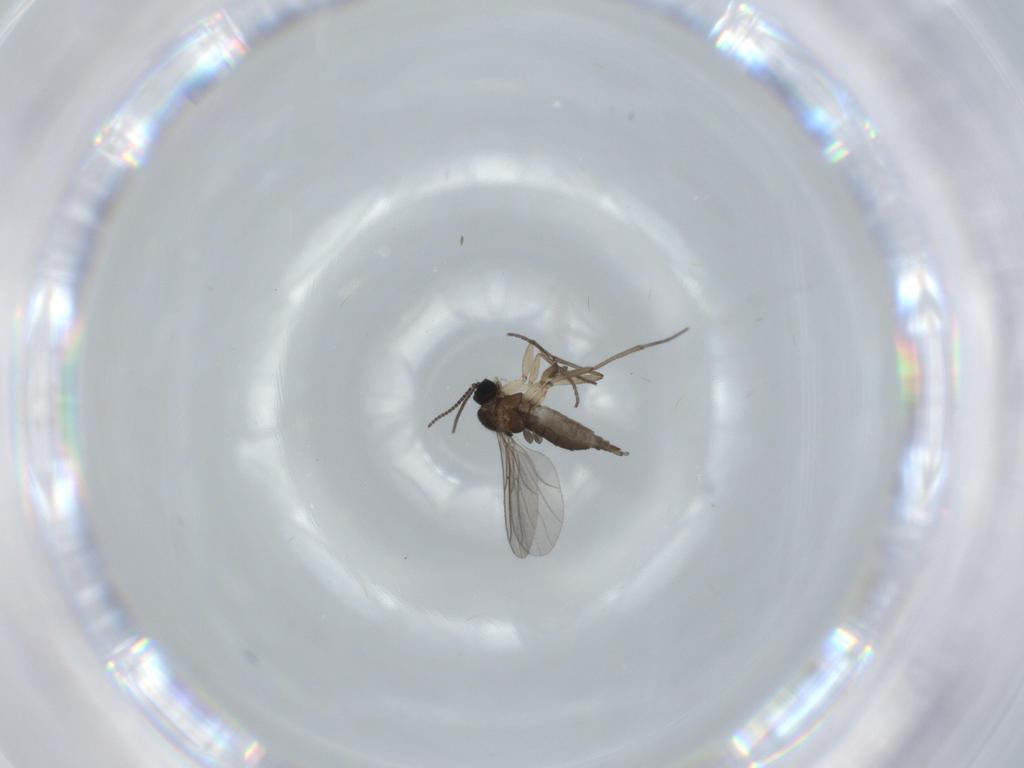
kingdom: Animalia
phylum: Arthropoda
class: Insecta
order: Diptera
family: Sciaridae
